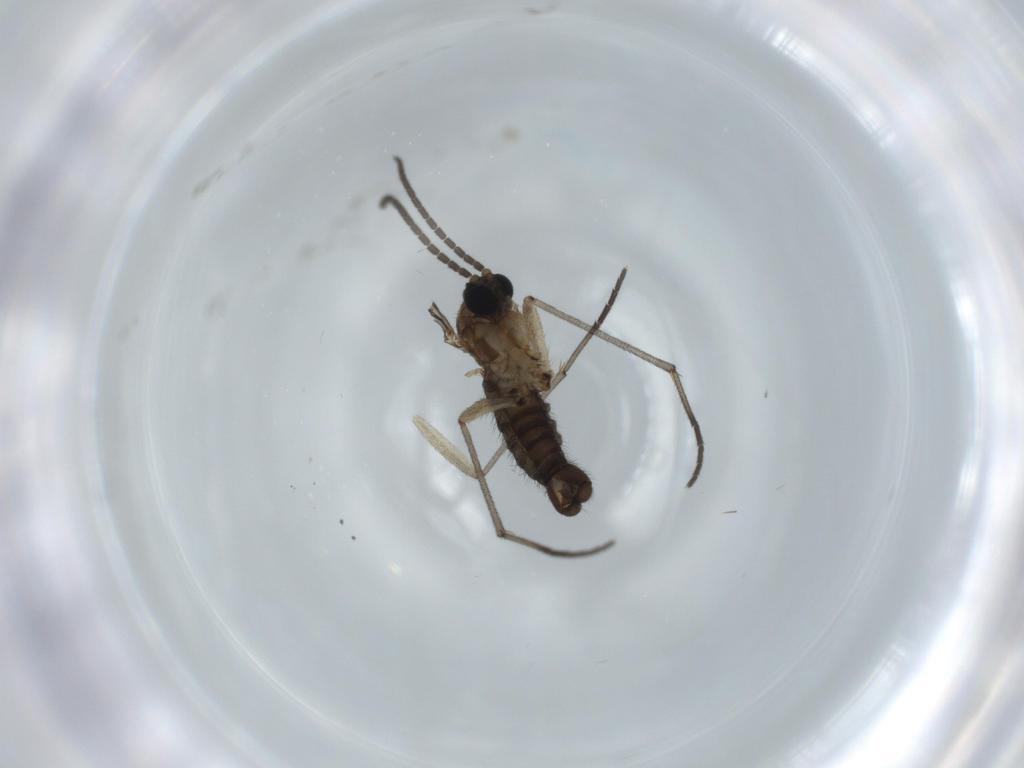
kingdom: Animalia
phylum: Arthropoda
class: Insecta
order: Diptera
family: Sciaridae
